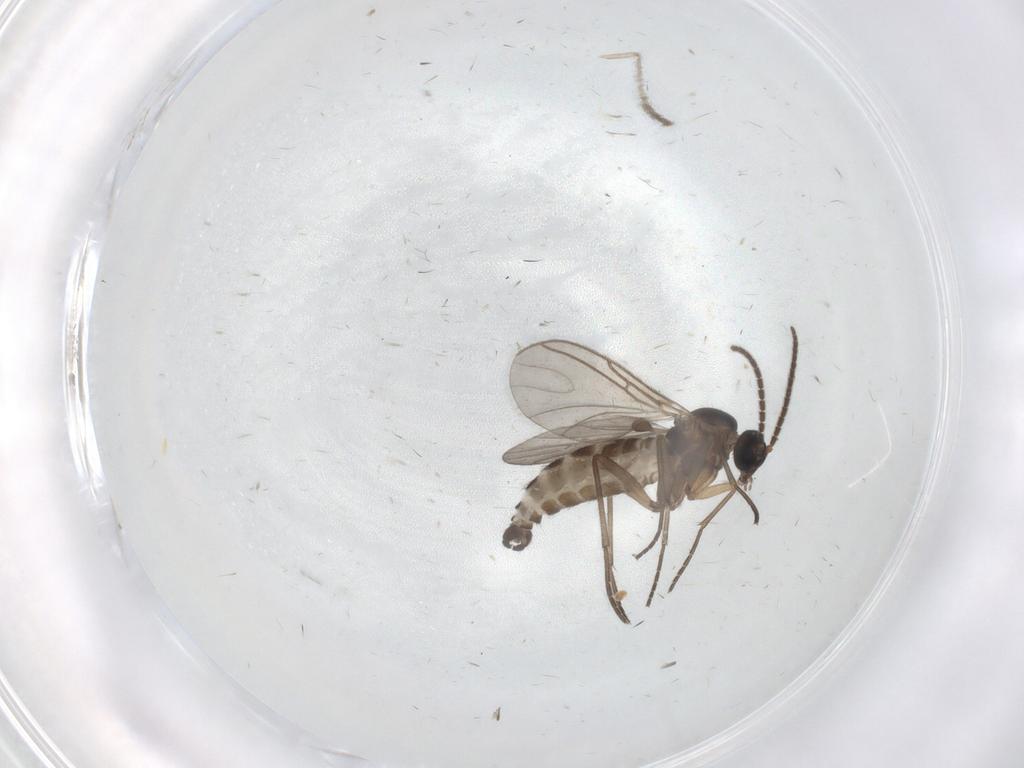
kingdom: Animalia
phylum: Arthropoda
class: Insecta
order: Diptera
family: Sciaridae
